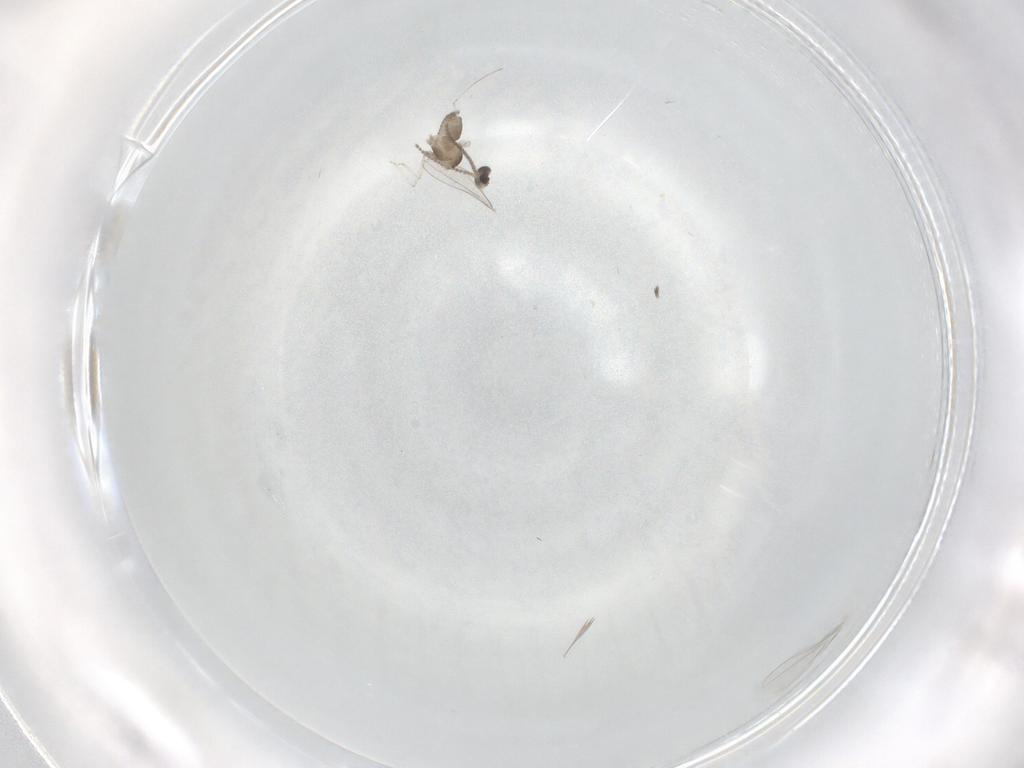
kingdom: Animalia
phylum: Arthropoda
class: Insecta
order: Diptera
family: Cecidomyiidae
